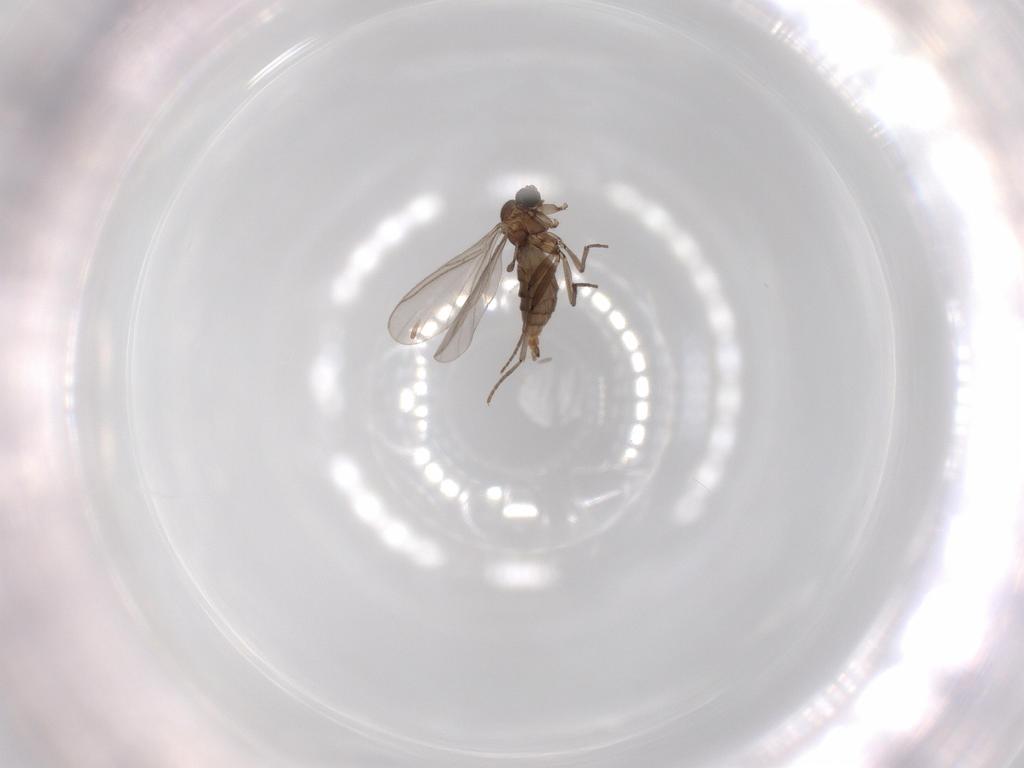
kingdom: Animalia
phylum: Arthropoda
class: Insecta
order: Diptera
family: Sciaridae
